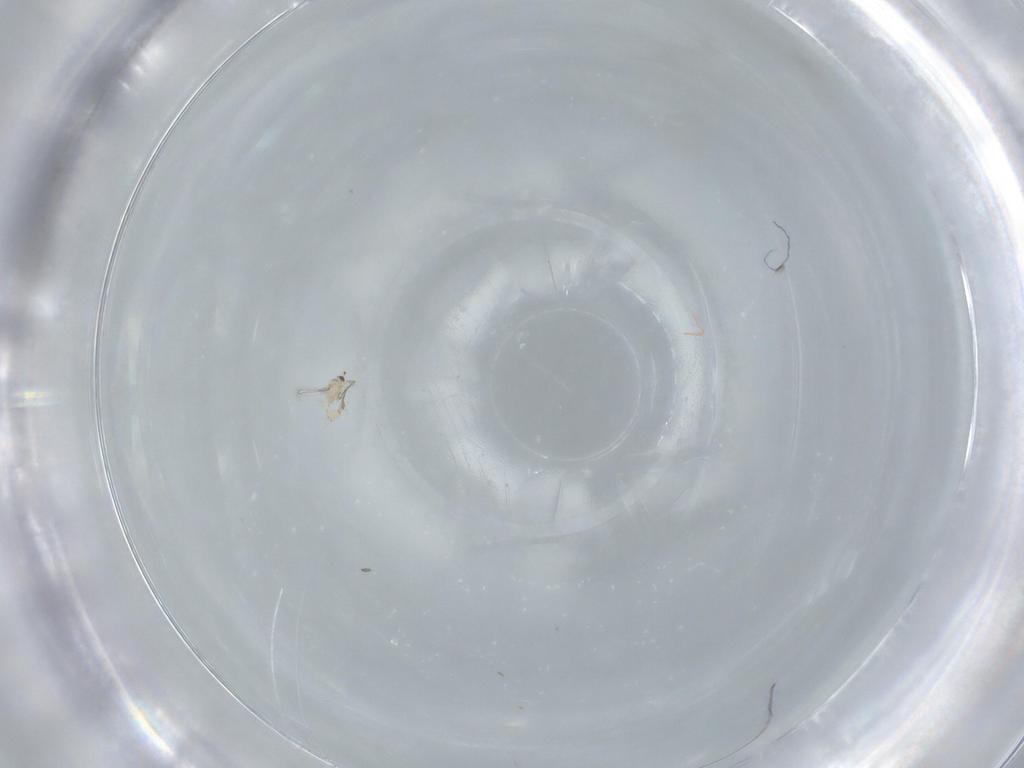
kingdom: Animalia
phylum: Arthropoda
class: Insecta
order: Hymenoptera
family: Mymaridae
